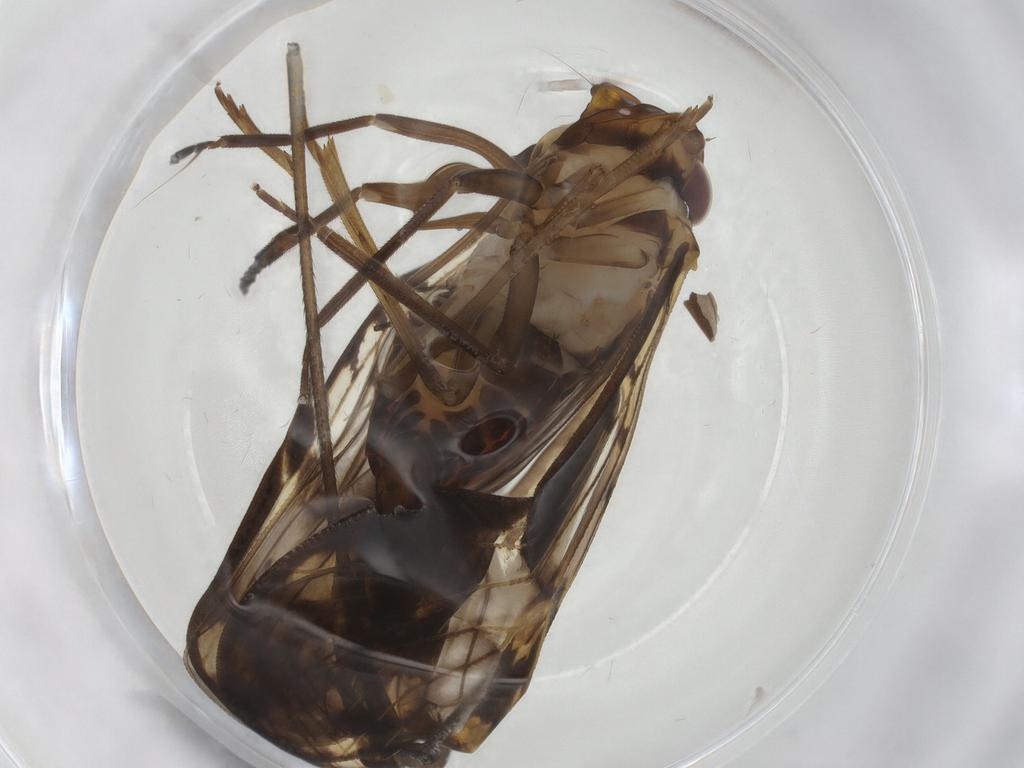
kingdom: Animalia
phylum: Arthropoda
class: Insecta
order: Hemiptera
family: Cixiidae
